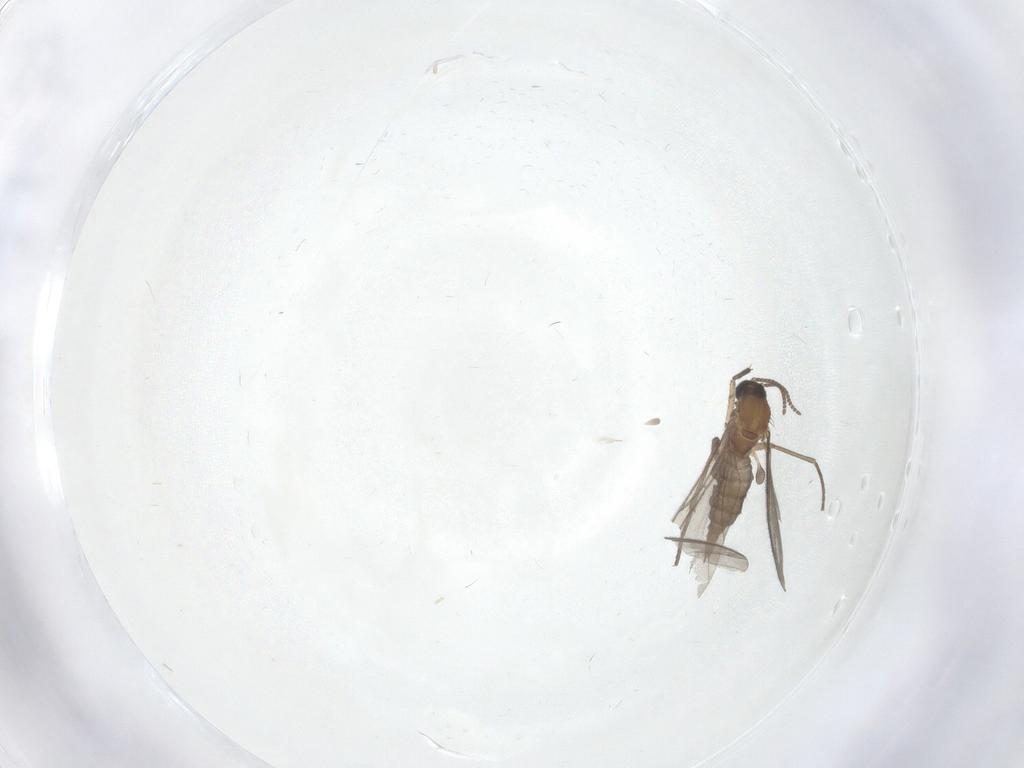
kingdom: Animalia
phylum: Arthropoda
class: Insecta
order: Diptera
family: Sciaridae
